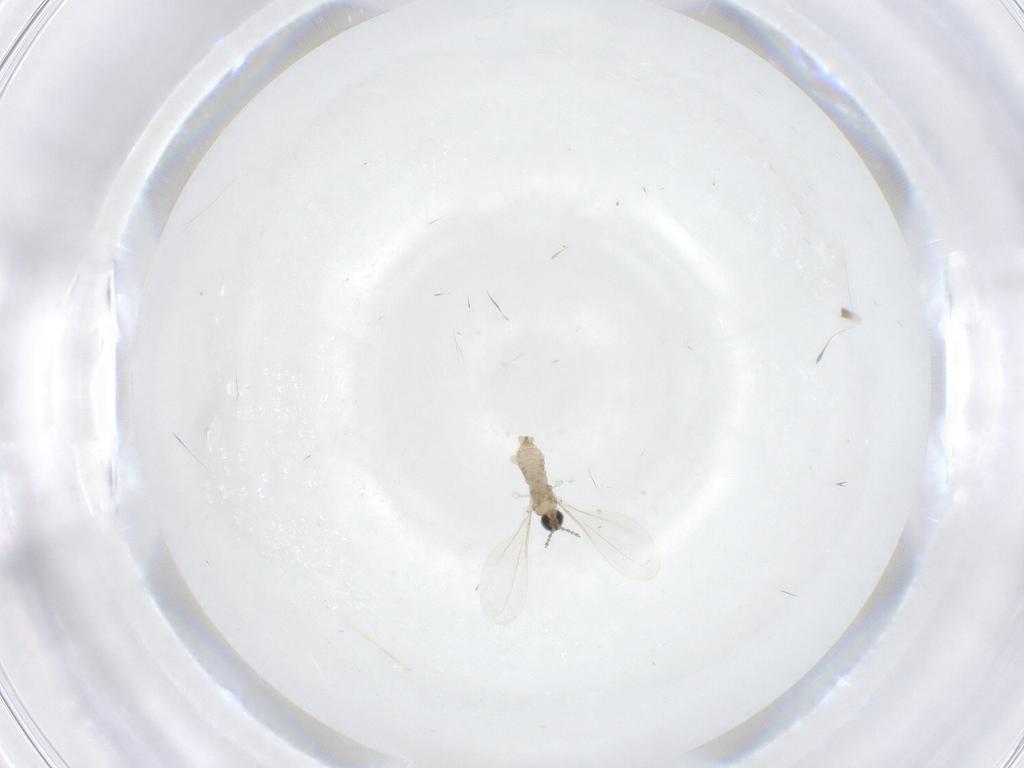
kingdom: Animalia
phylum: Arthropoda
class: Insecta
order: Diptera
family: Cecidomyiidae
